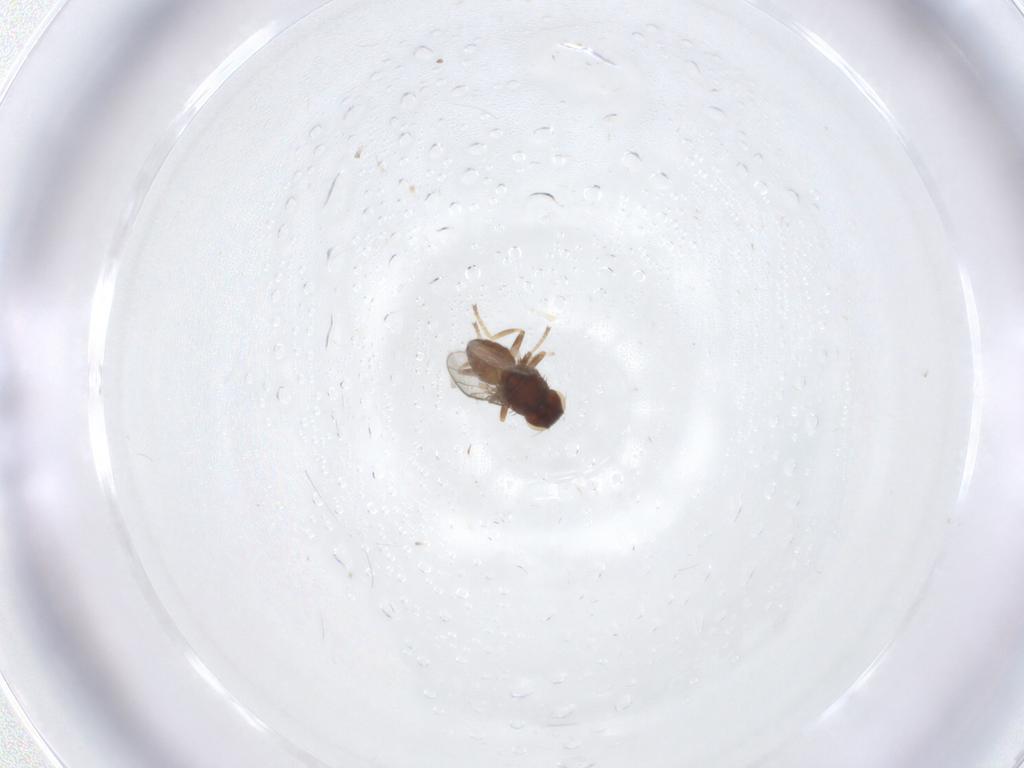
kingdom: Animalia
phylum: Arthropoda
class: Insecta
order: Diptera
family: Chloropidae
